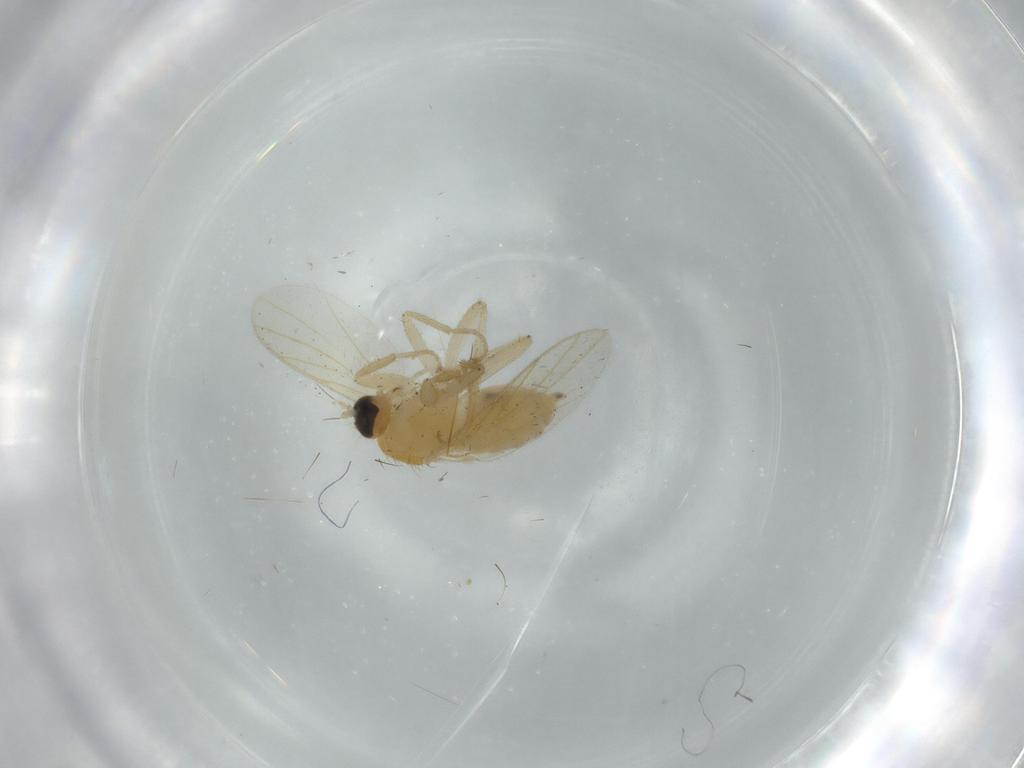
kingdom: Animalia
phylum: Arthropoda
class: Insecta
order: Diptera
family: Hybotidae
